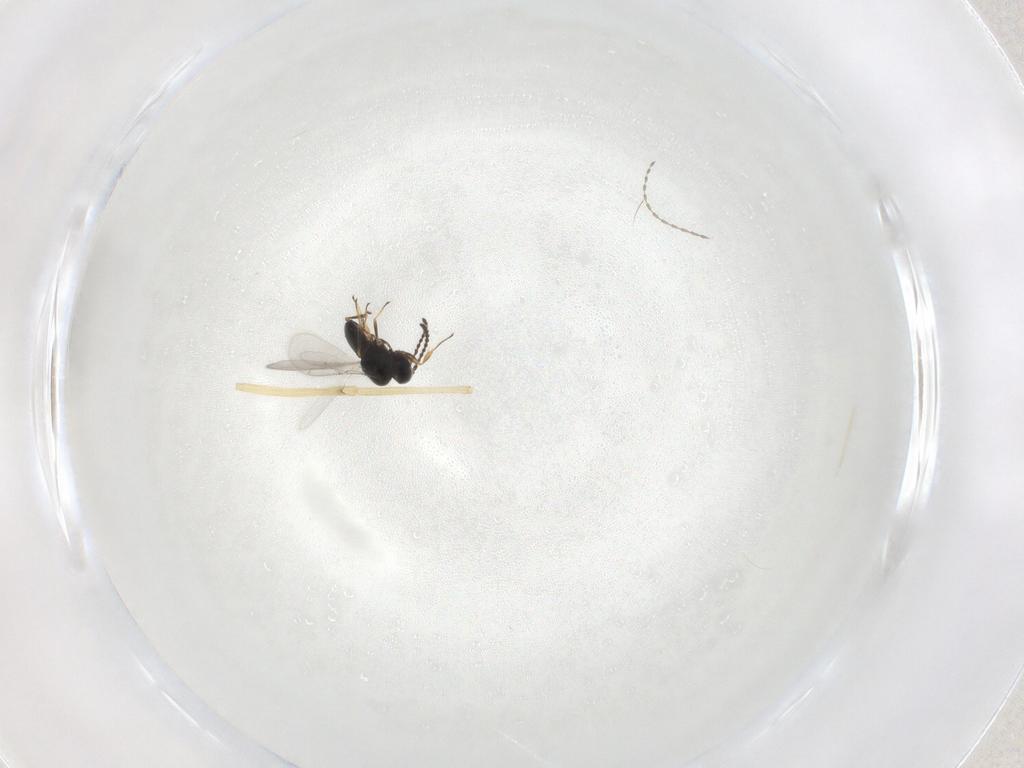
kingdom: Animalia
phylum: Arthropoda
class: Insecta
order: Hymenoptera
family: Scelionidae
